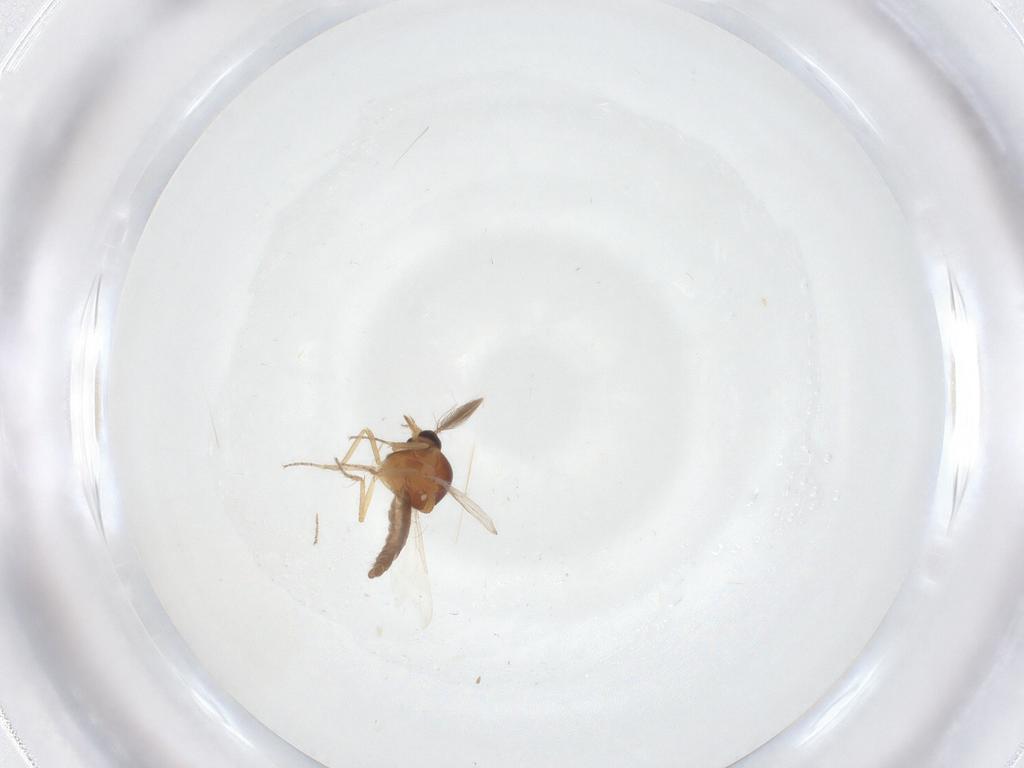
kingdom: Animalia
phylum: Arthropoda
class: Insecta
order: Diptera
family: Ceratopogonidae
